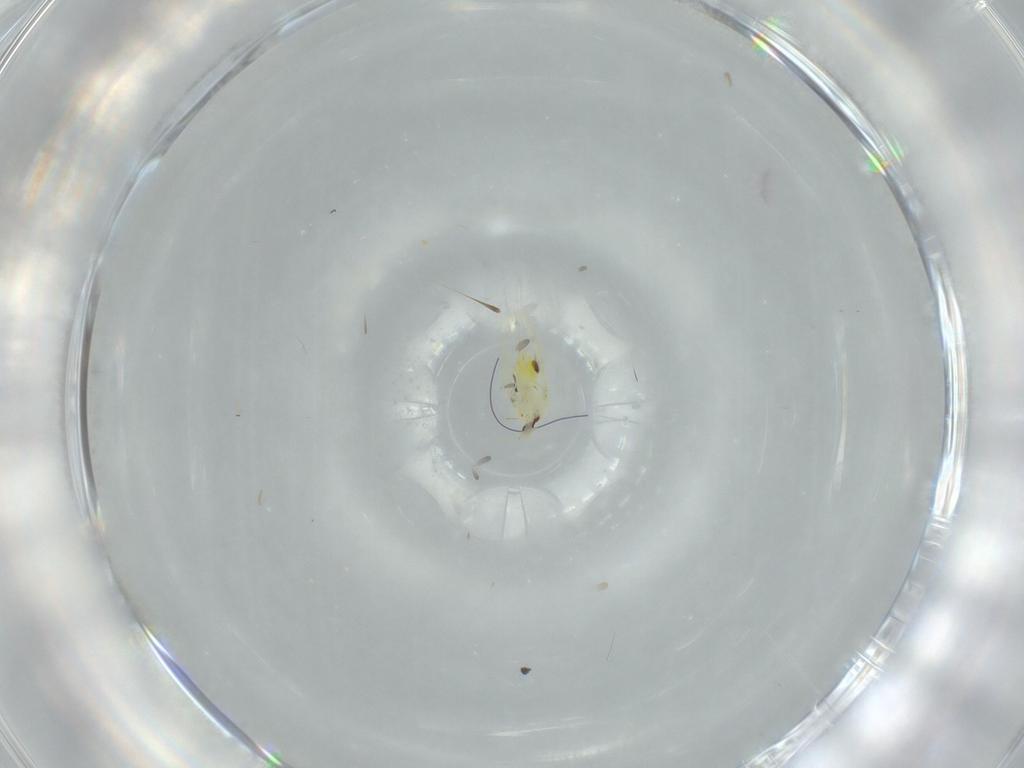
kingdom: Animalia
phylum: Arthropoda
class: Insecta
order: Hemiptera
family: Aleyrodidae
